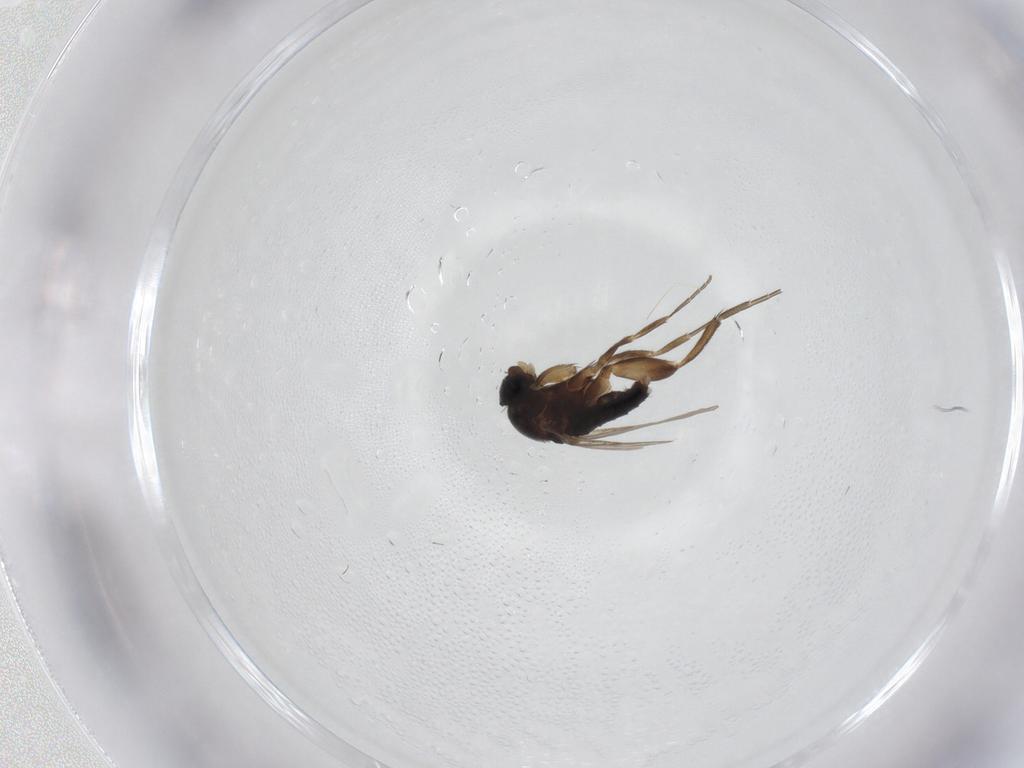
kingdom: Animalia
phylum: Arthropoda
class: Insecta
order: Diptera
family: Phoridae
